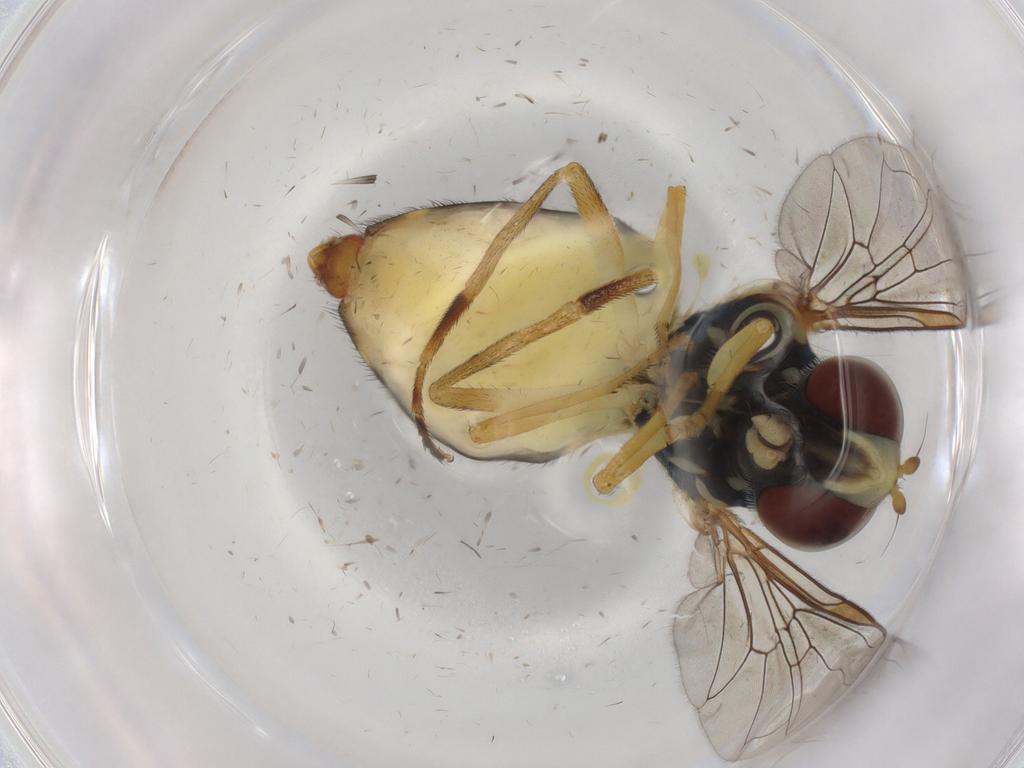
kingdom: Animalia
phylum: Arthropoda
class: Insecta
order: Diptera
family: Syrphidae
